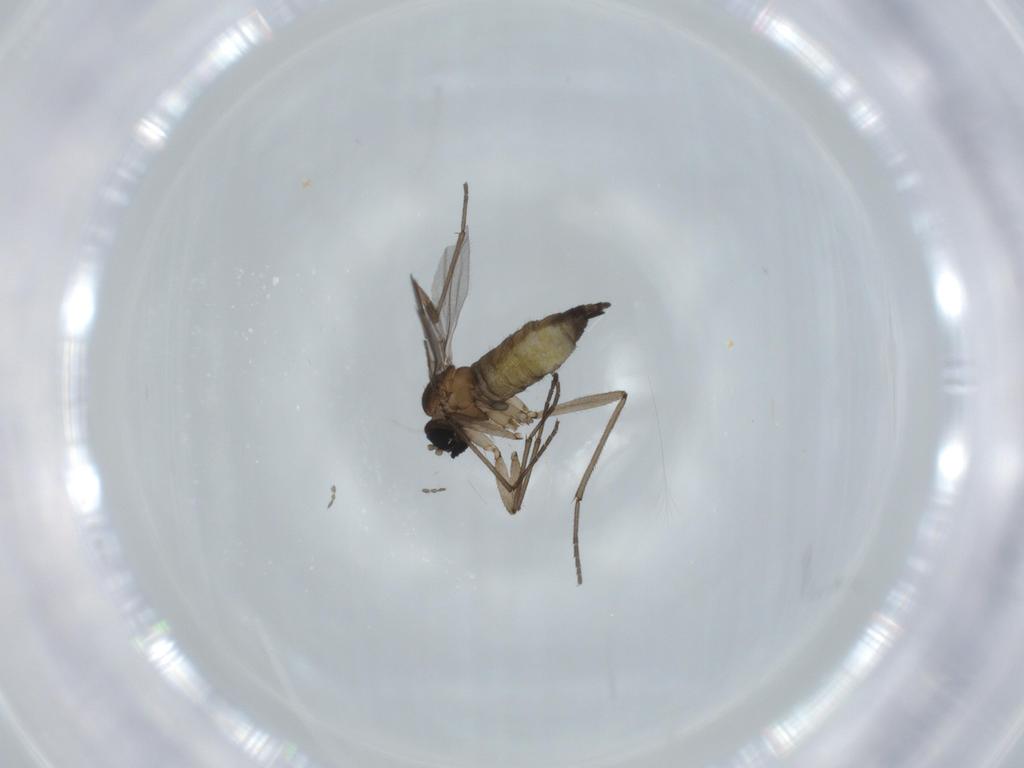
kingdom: Animalia
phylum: Arthropoda
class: Insecta
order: Diptera
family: Sciaridae
